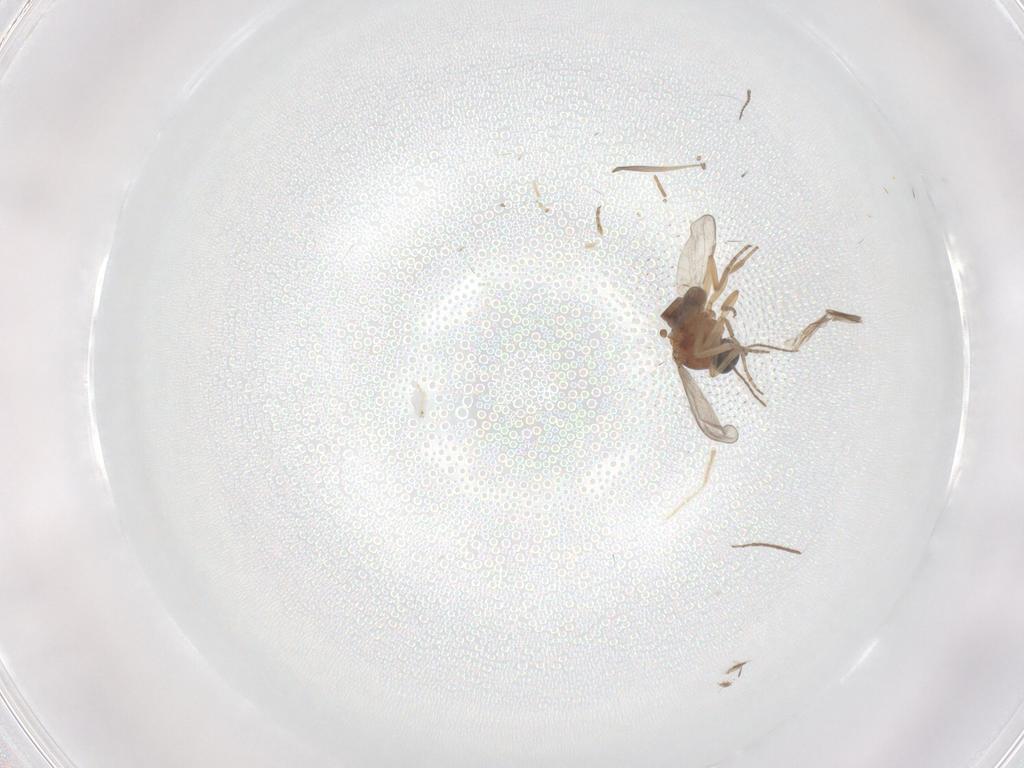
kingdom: Animalia
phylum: Arthropoda
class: Insecta
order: Diptera
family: Chironomidae
